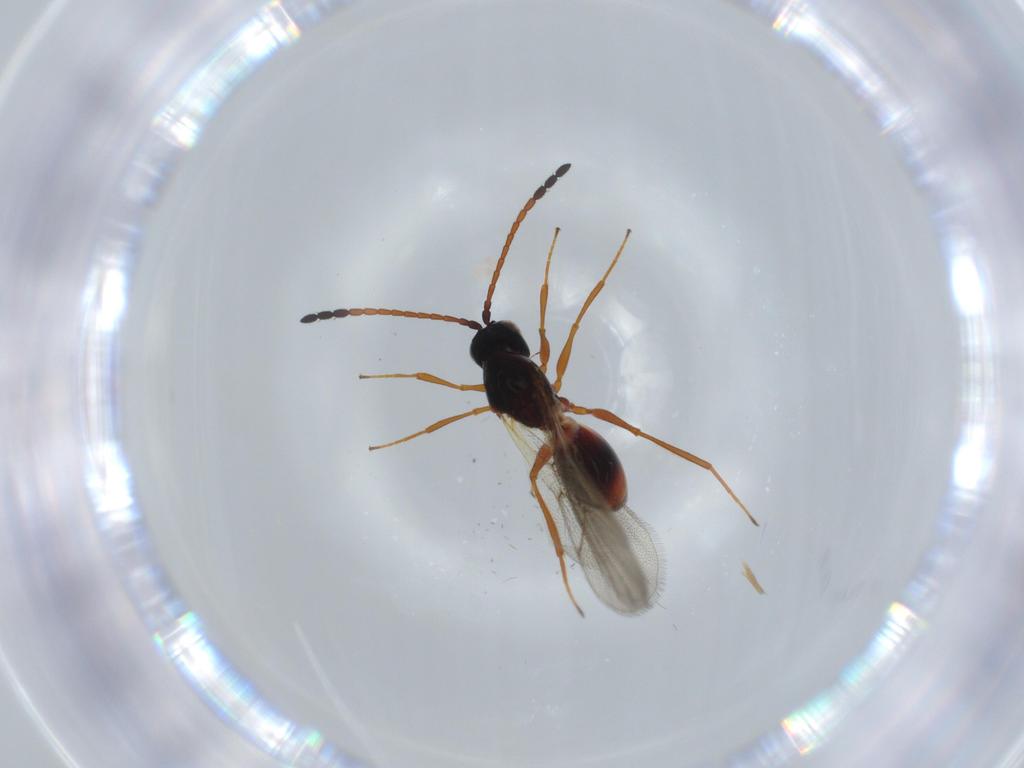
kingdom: Animalia
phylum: Arthropoda
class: Insecta
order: Hymenoptera
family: Figitidae
